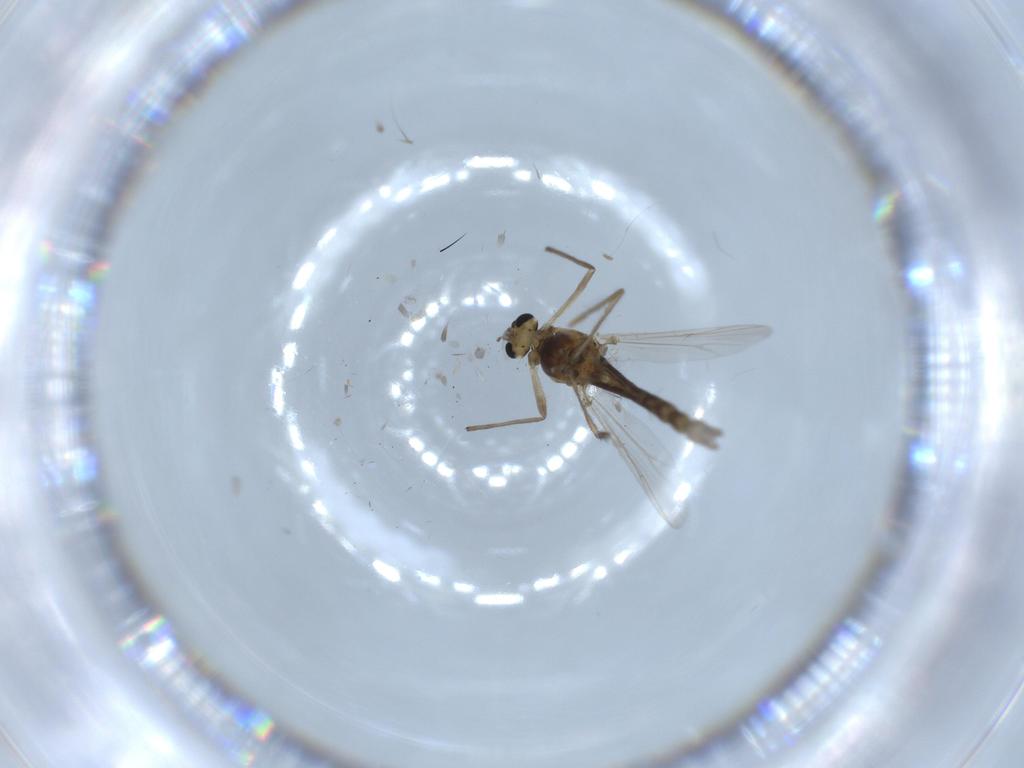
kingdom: Animalia
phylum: Arthropoda
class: Insecta
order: Diptera
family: Chironomidae
